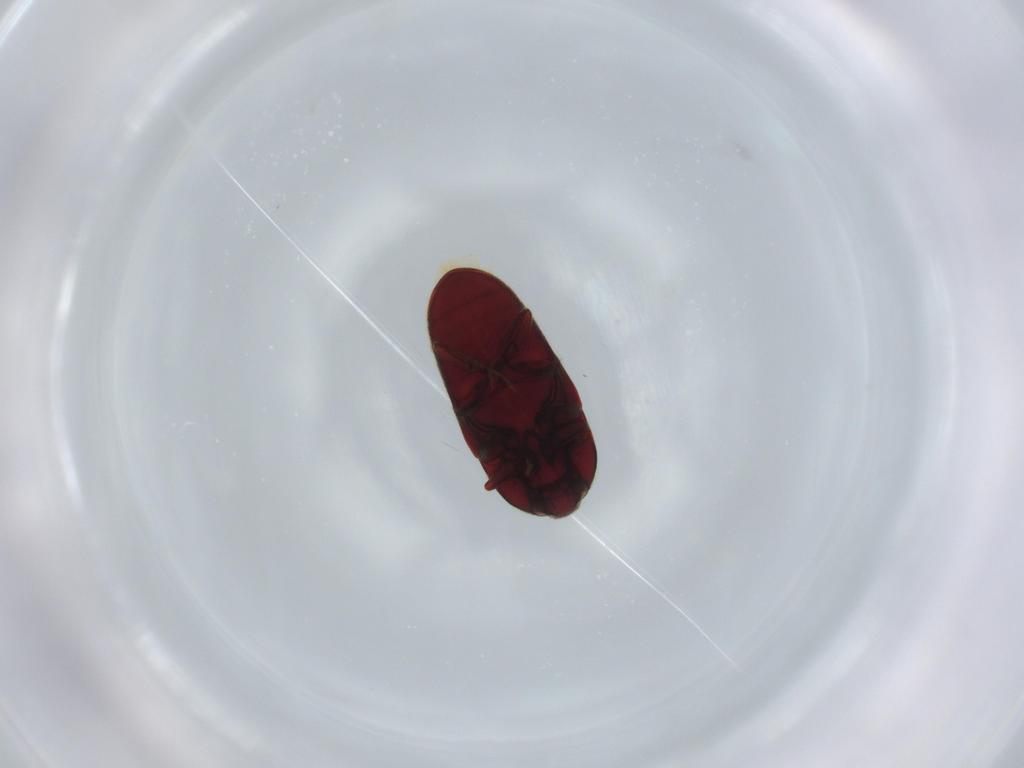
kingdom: Animalia
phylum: Arthropoda
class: Insecta
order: Coleoptera
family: Throscidae
